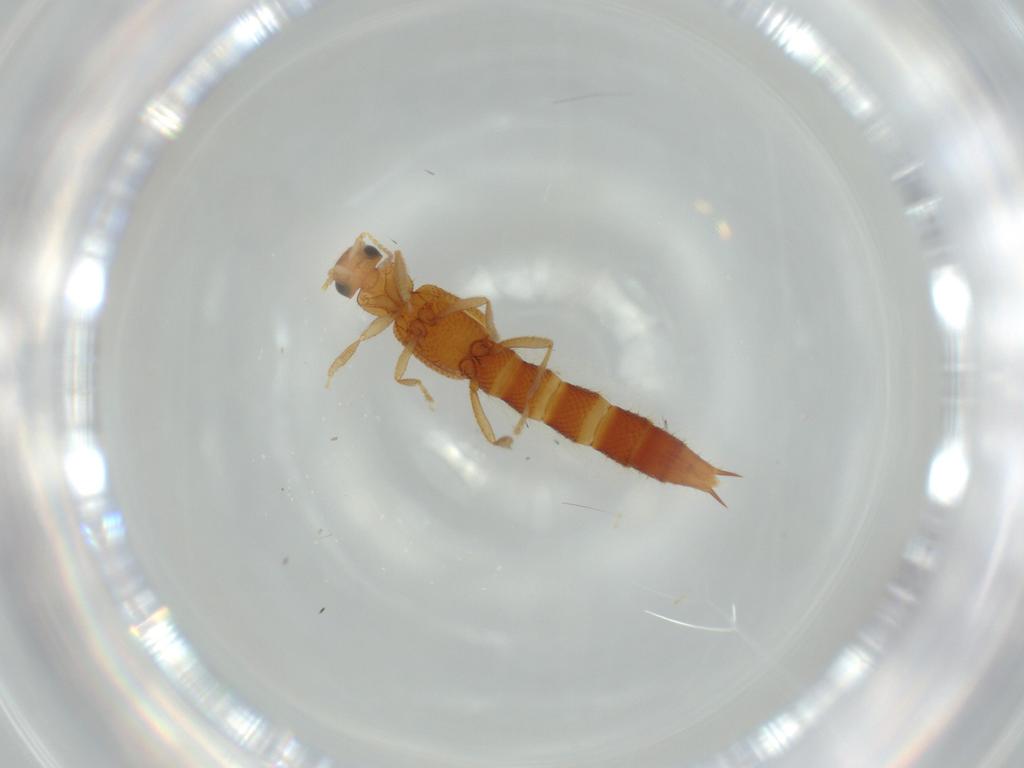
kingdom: Animalia
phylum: Arthropoda
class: Insecta
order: Coleoptera
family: Staphylinidae
